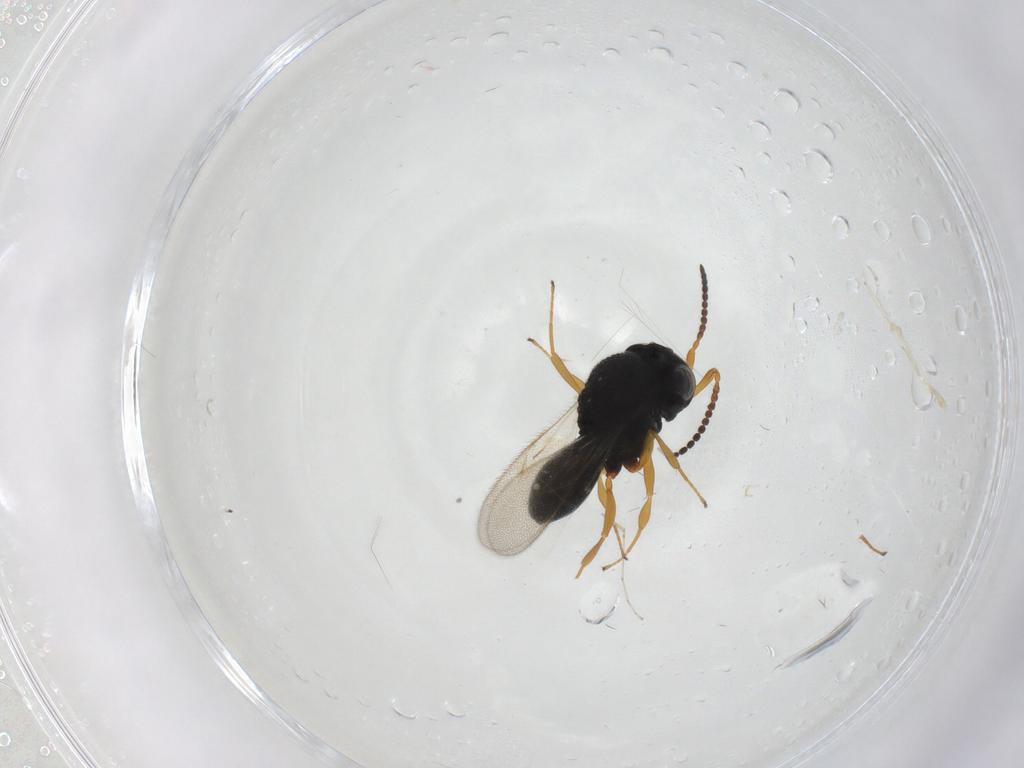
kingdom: Animalia
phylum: Arthropoda
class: Insecta
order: Hymenoptera
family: Scelionidae
